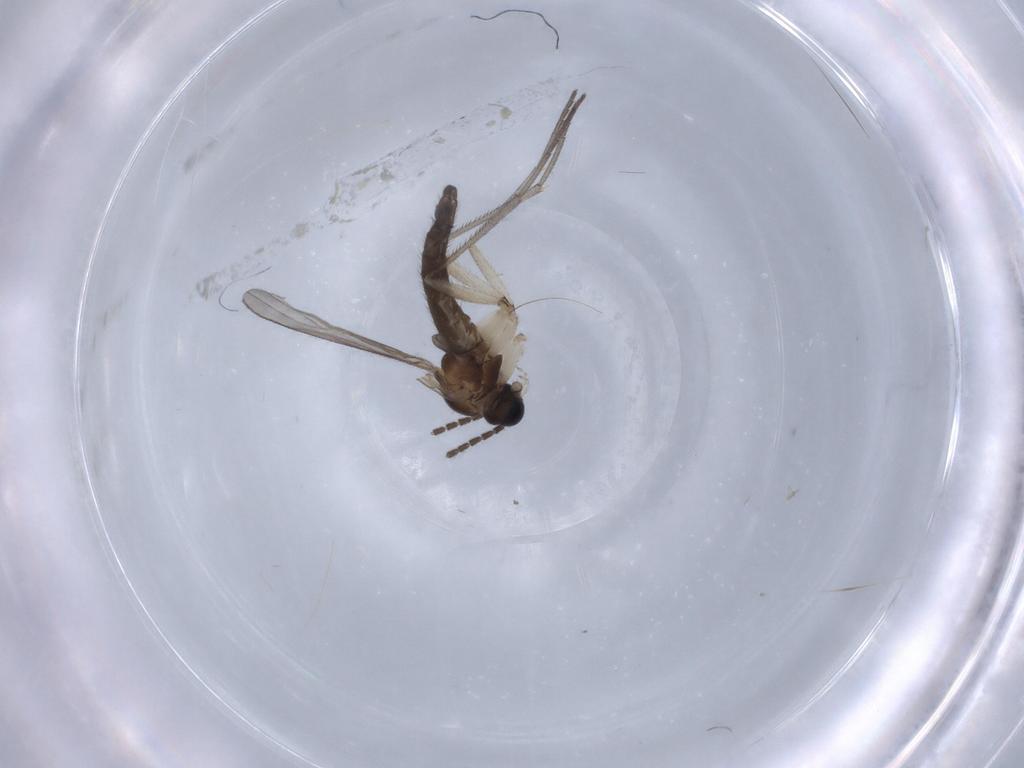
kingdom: Animalia
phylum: Arthropoda
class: Insecta
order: Diptera
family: Sciaridae
